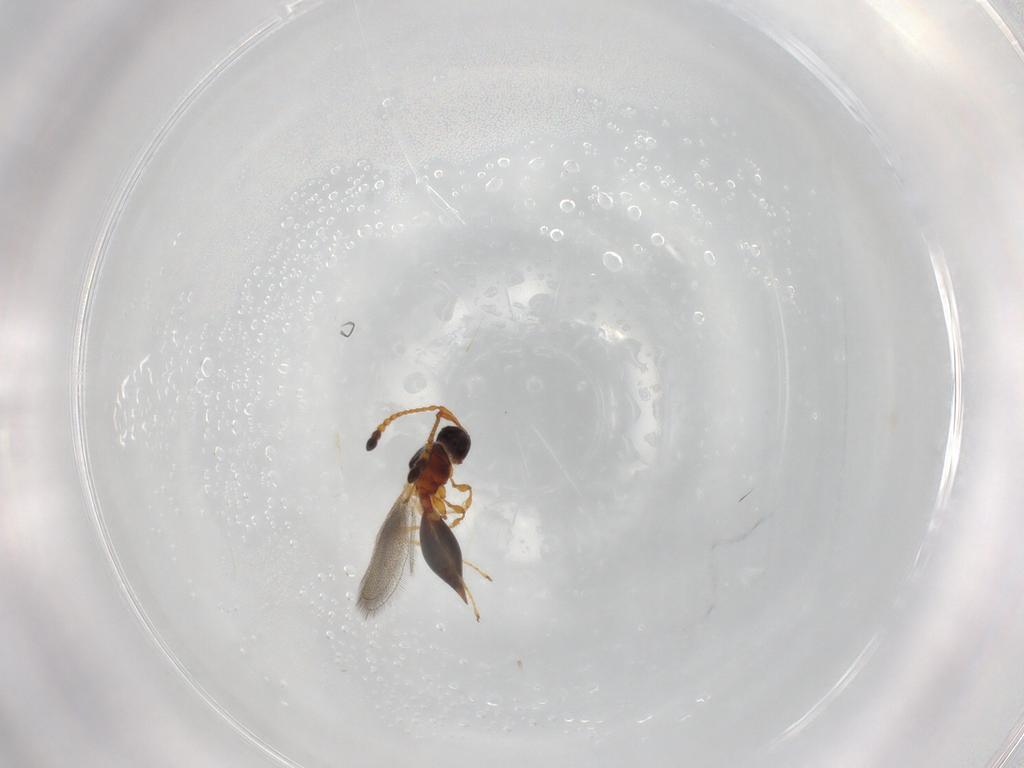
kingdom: Animalia
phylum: Arthropoda
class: Insecta
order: Hymenoptera
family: Diapriidae
